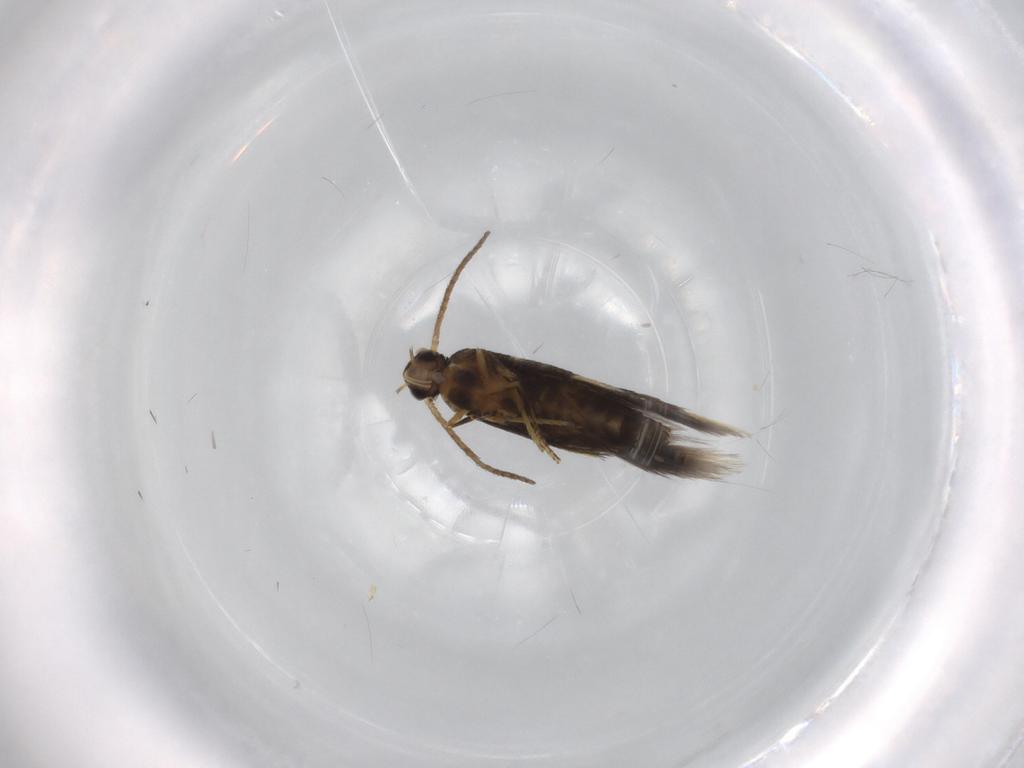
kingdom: Animalia
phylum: Arthropoda
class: Insecta
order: Lepidoptera
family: Heliozelidae
